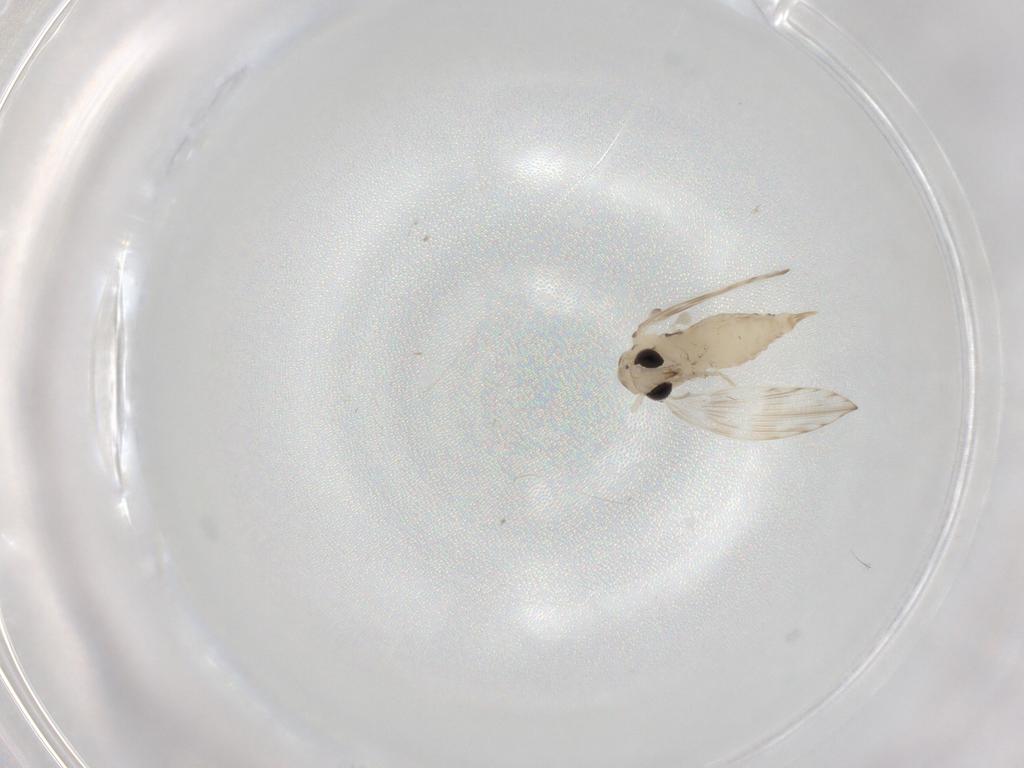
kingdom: Animalia
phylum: Arthropoda
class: Insecta
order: Diptera
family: Psychodidae
